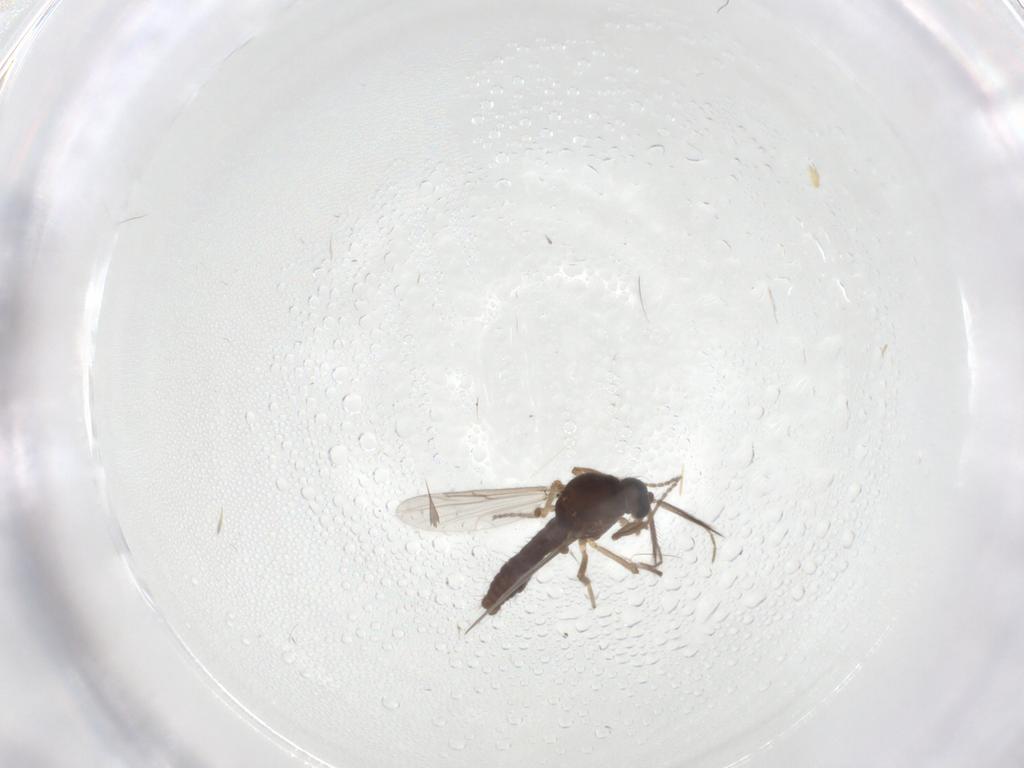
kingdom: Animalia
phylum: Arthropoda
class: Insecta
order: Diptera
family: Ceratopogonidae
